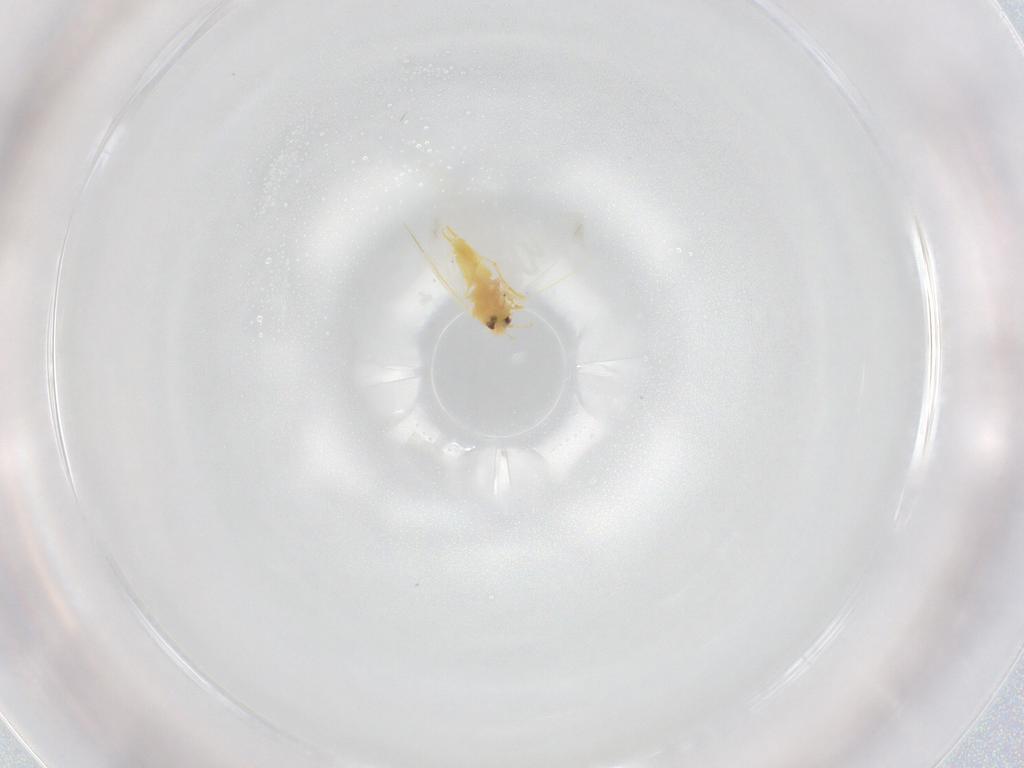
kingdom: Animalia
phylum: Arthropoda
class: Insecta
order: Hemiptera
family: Aleyrodidae
